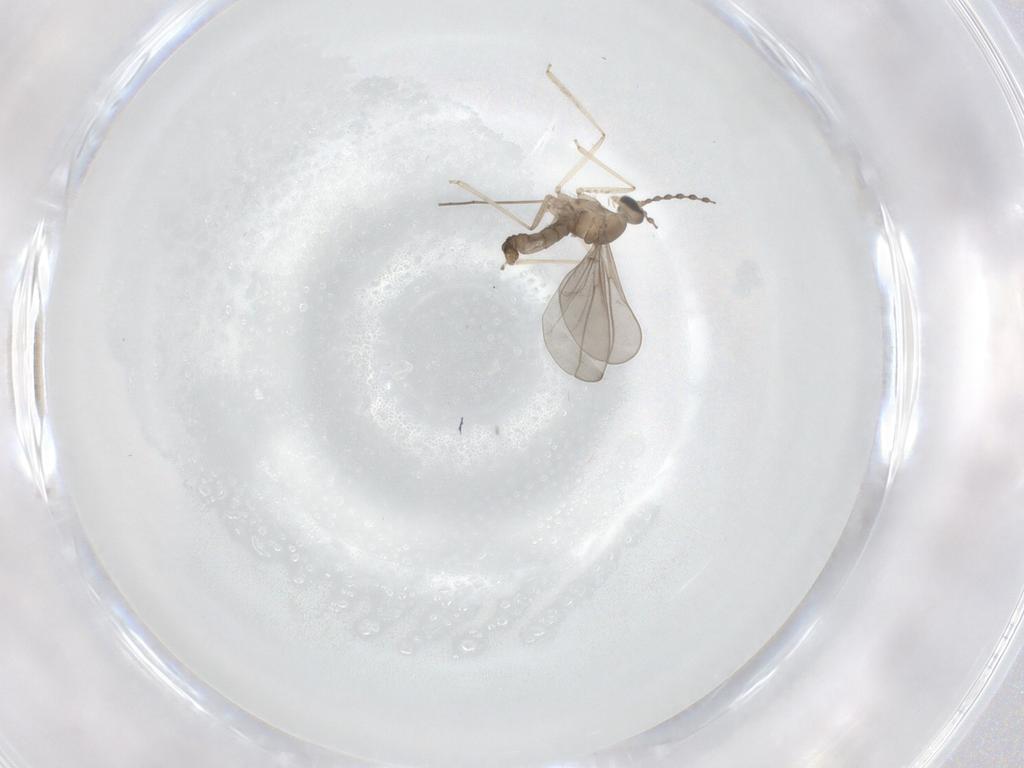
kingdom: Animalia
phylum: Arthropoda
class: Insecta
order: Diptera
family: Cecidomyiidae
